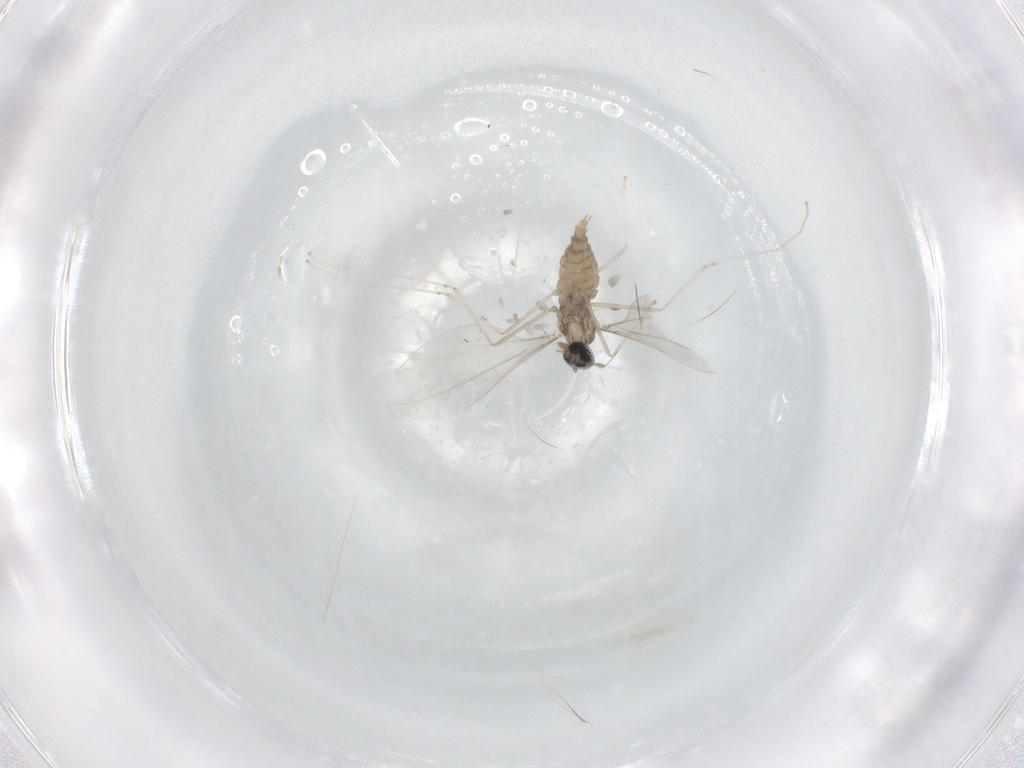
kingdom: Animalia
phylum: Arthropoda
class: Insecta
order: Diptera
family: Cecidomyiidae
